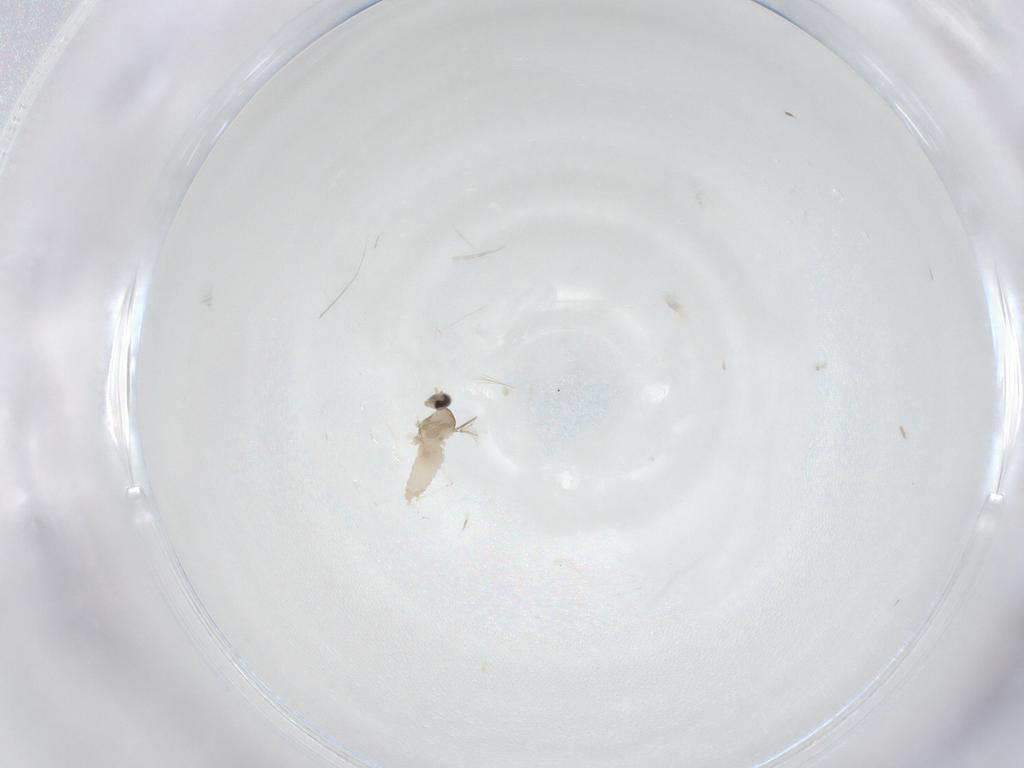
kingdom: Animalia
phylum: Arthropoda
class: Insecta
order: Diptera
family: Cecidomyiidae
